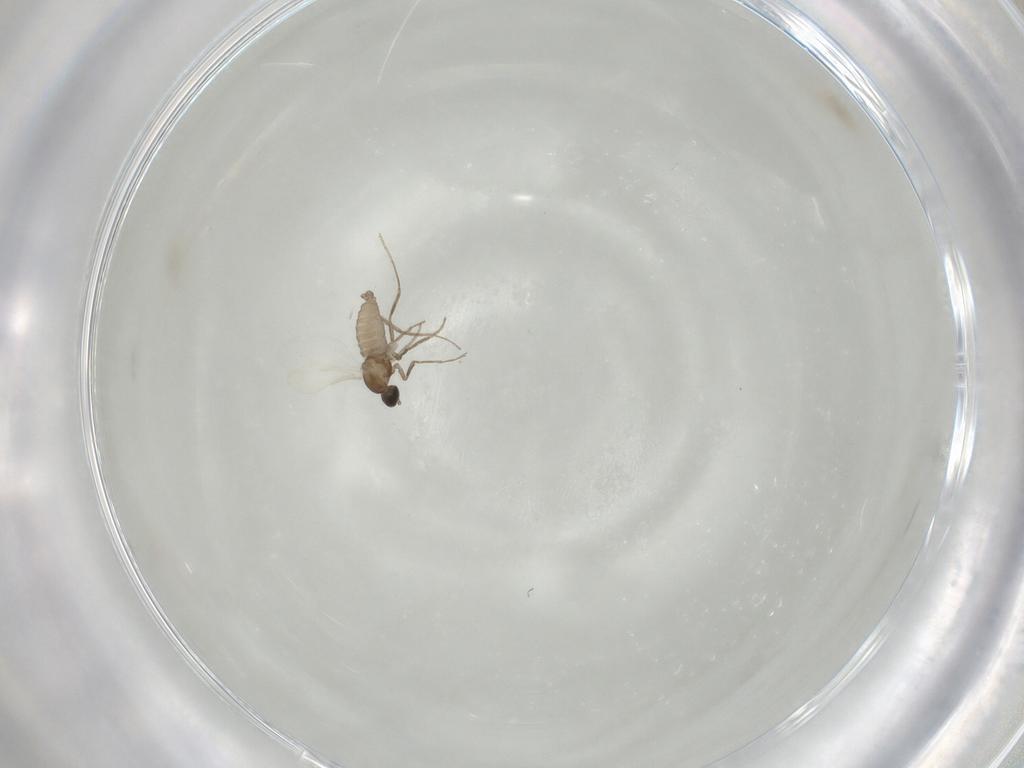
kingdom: Animalia
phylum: Arthropoda
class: Insecta
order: Diptera
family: Cecidomyiidae
